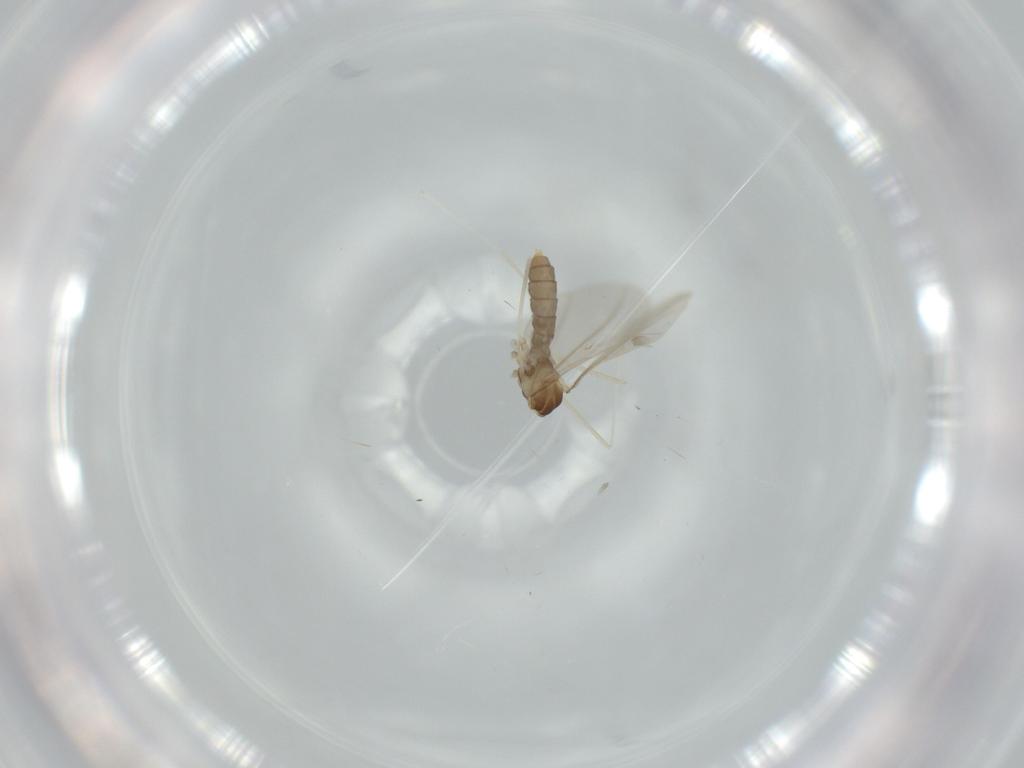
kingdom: Animalia
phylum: Arthropoda
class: Insecta
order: Diptera
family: Cecidomyiidae
